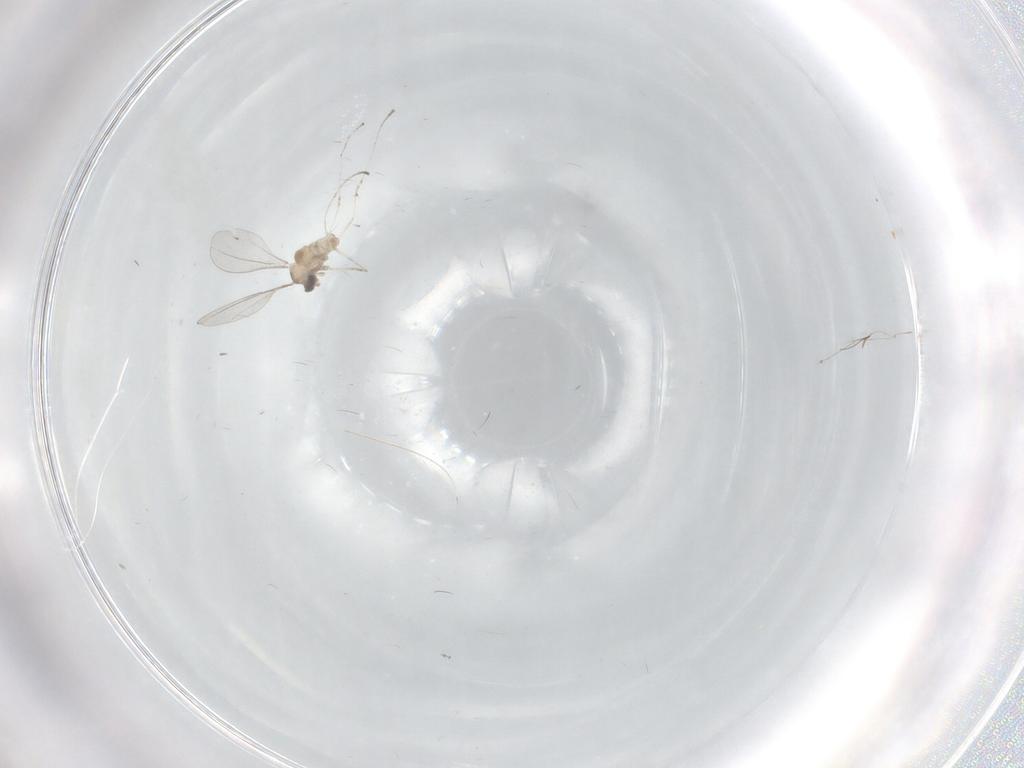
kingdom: Animalia
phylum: Arthropoda
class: Insecta
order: Diptera
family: Cecidomyiidae
